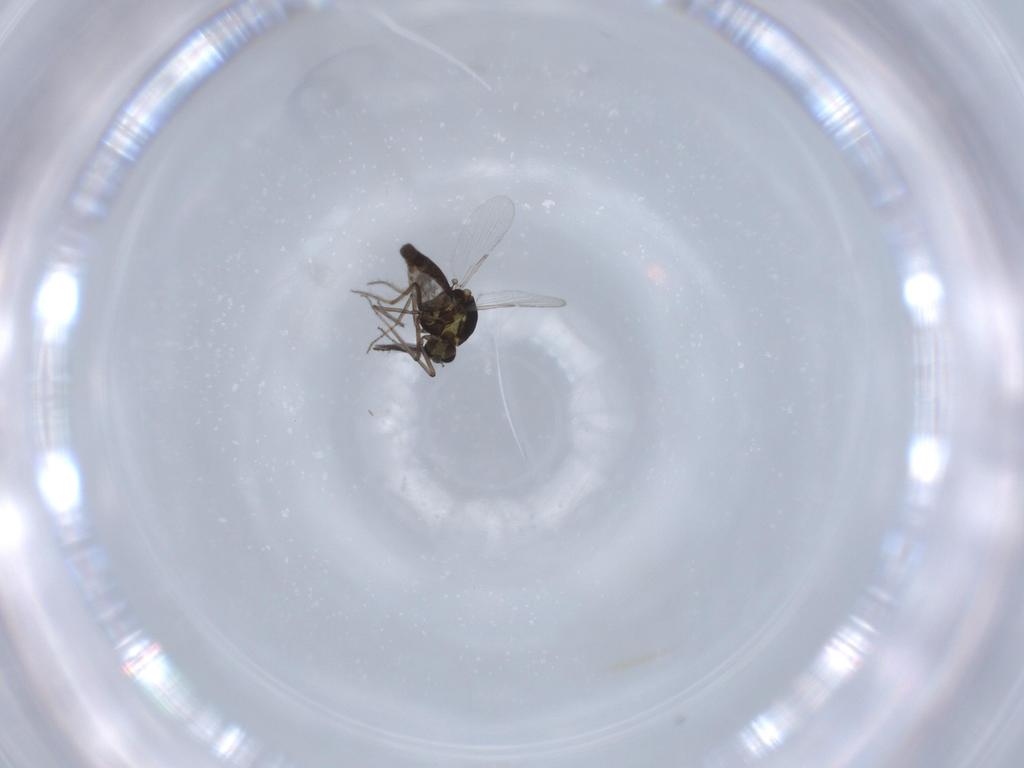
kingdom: Animalia
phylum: Arthropoda
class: Insecta
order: Diptera
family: Ceratopogonidae
